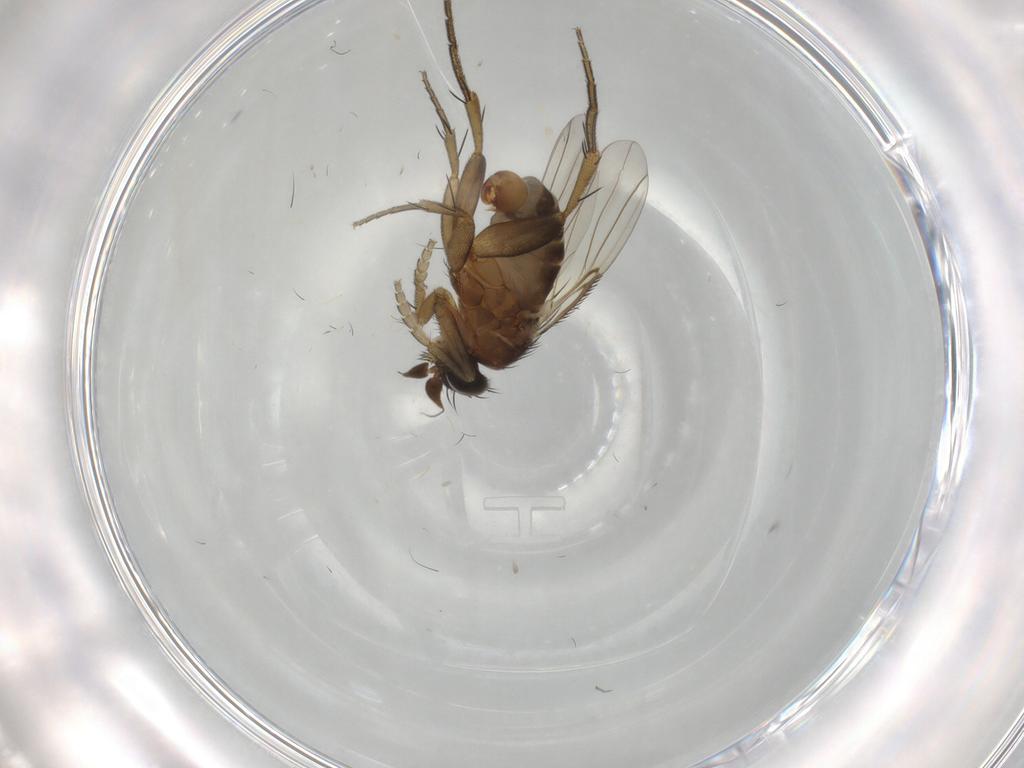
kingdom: Animalia
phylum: Arthropoda
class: Insecta
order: Diptera
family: Phoridae
